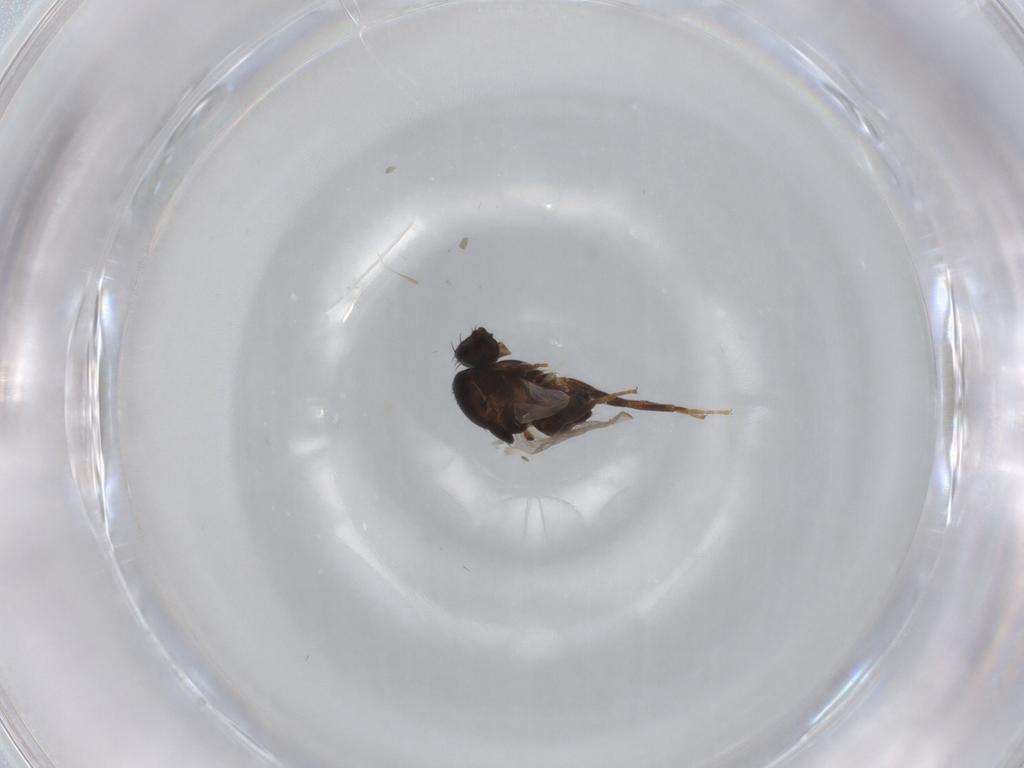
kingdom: Animalia
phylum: Arthropoda
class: Insecta
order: Diptera
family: Sphaeroceridae
